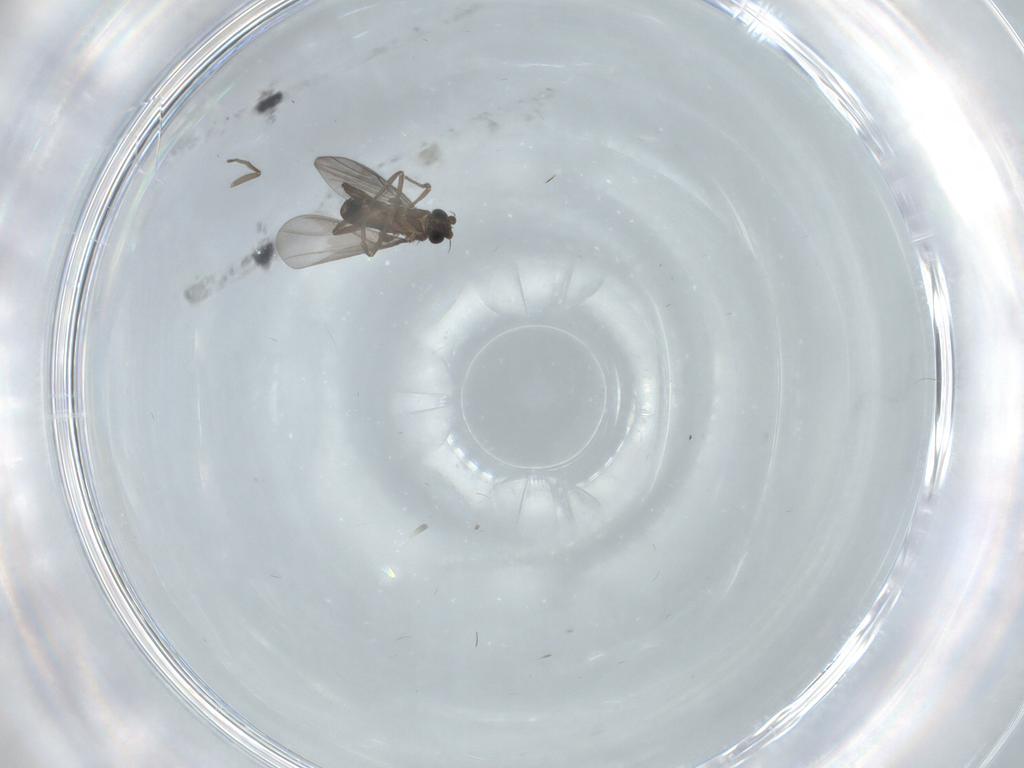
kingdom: Animalia
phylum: Arthropoda
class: Insecta
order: Diptera
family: Phoridae
